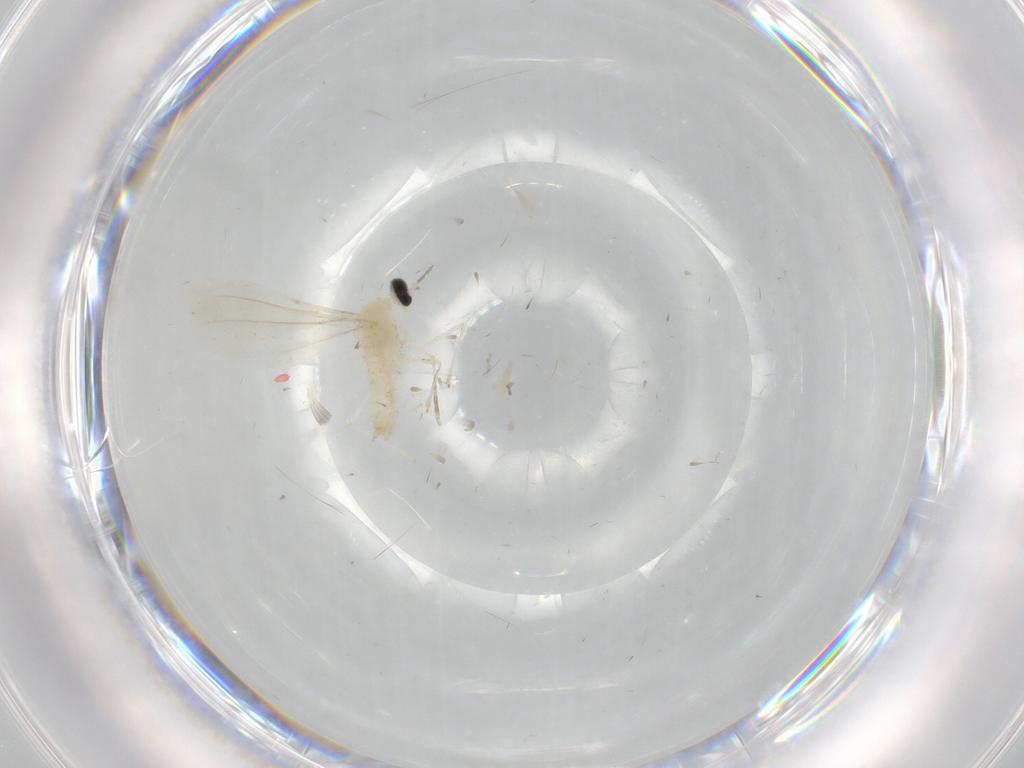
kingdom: Animalia
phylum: Arthropoda
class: Insecta
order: Diptera
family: Cecidomyiidae
